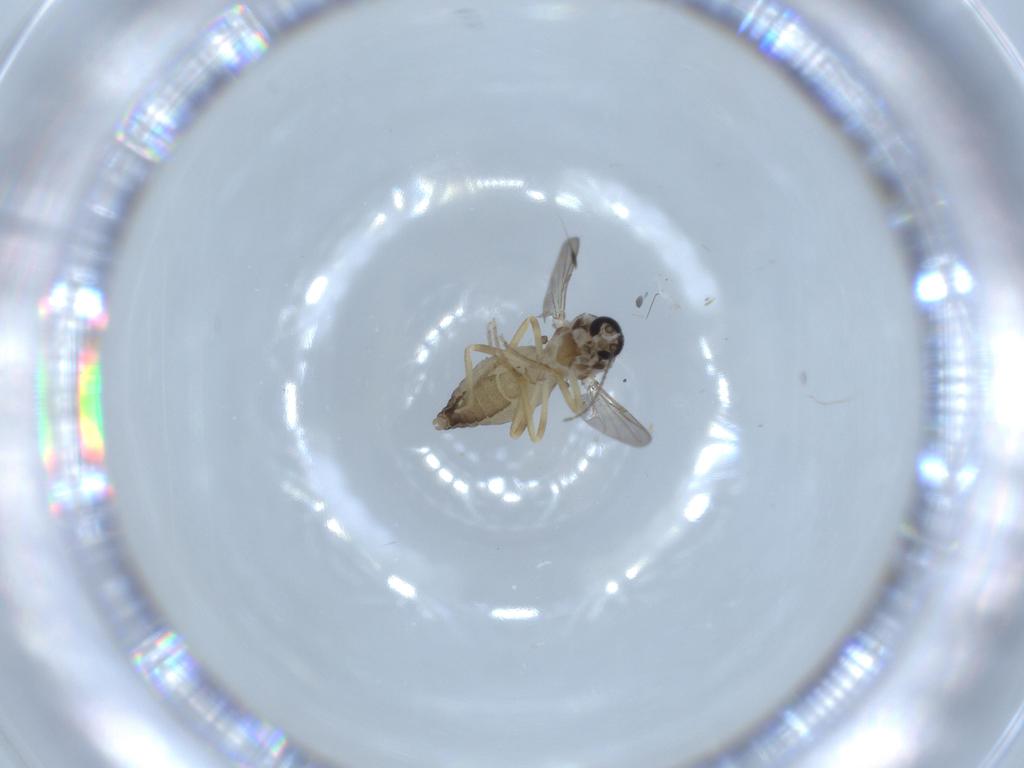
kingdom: Animalia
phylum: Arthropoda
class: Insecta
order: Diptera
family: Ceratopogonidae
